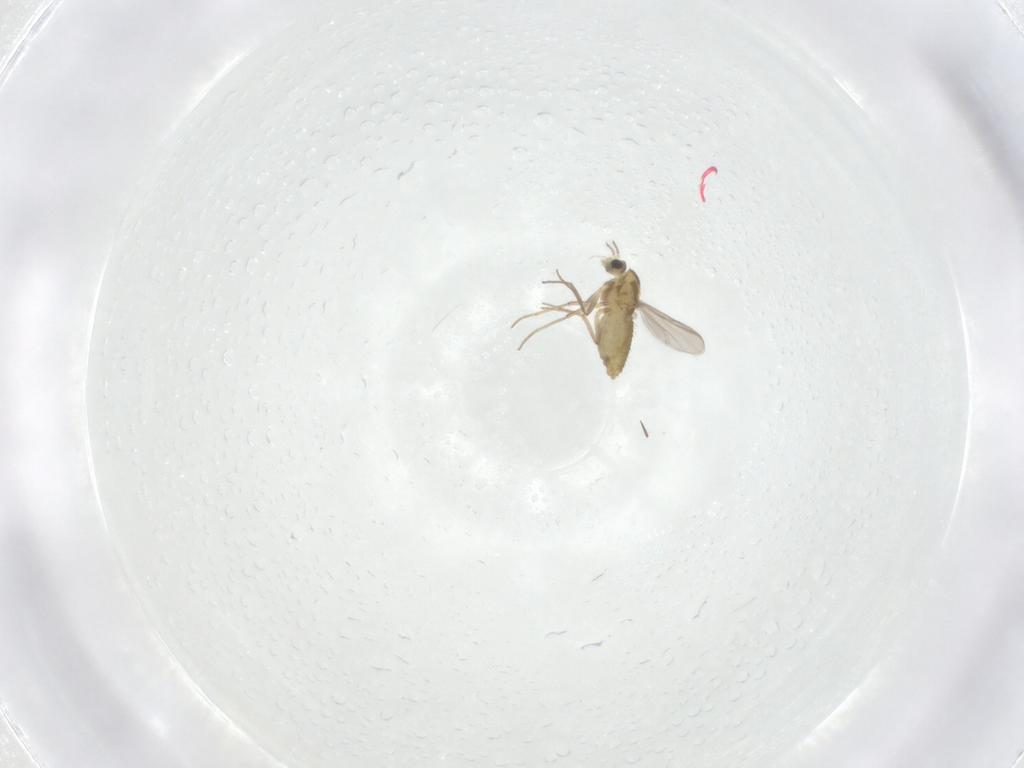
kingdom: Animalia
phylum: Arthropoda
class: Insecta
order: Diptera
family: Chironomidae
